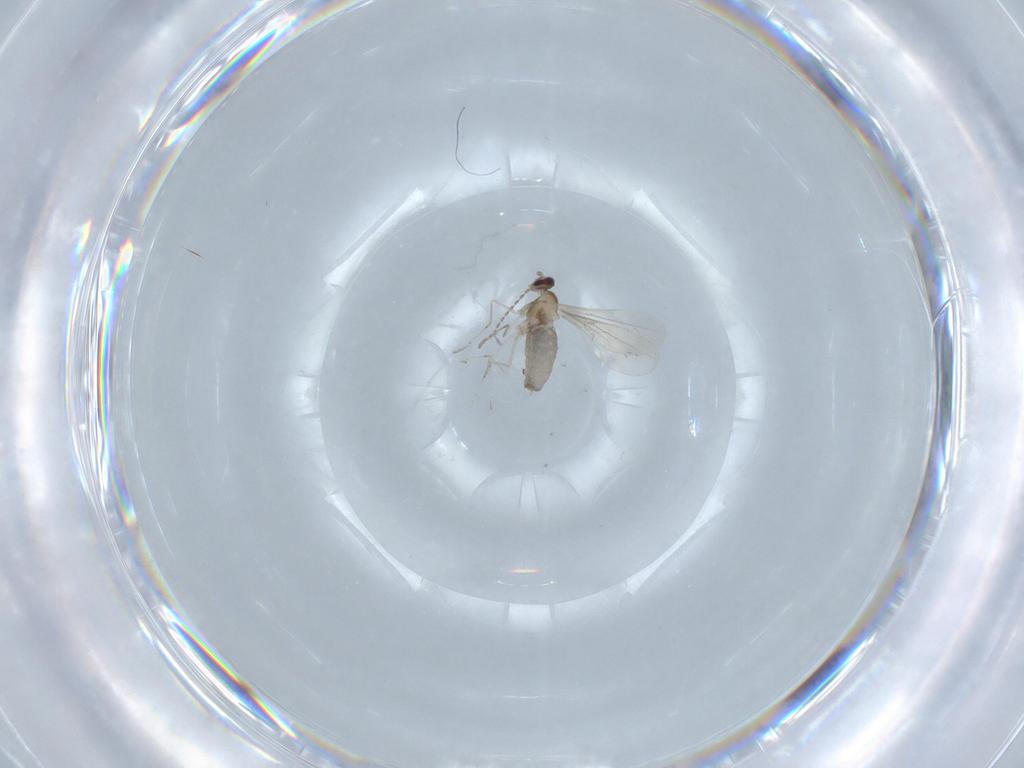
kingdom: Animalia
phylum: Arthropoda
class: Insecta
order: Diptera
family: Cecidomyiidae
